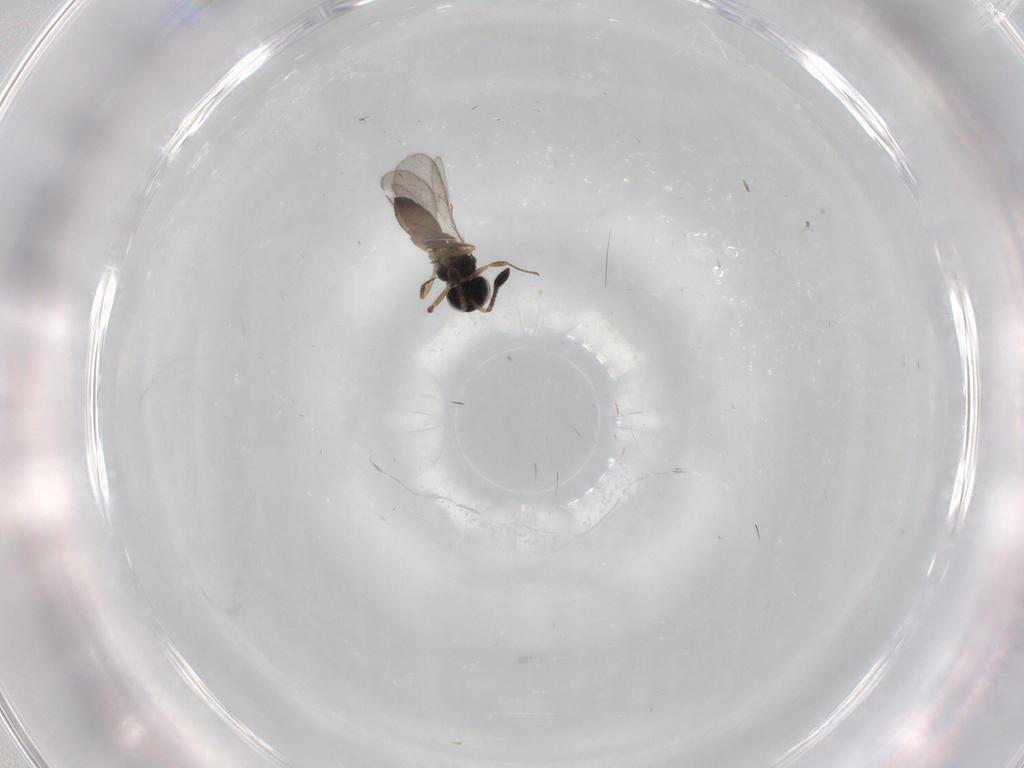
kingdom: Animalia
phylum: Arthropoda
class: Insecta
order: Hymenoptera
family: Scelionidae
